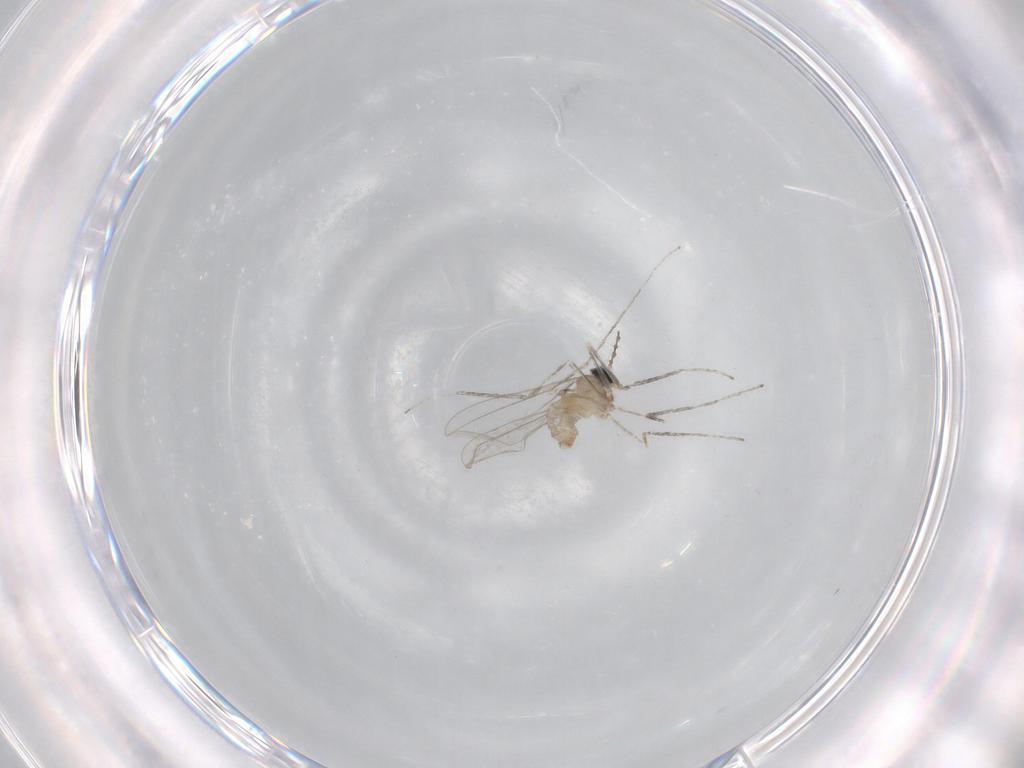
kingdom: Animalia
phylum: Arthropoda
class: Insecta
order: Diptera
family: Cecidomyiidae
